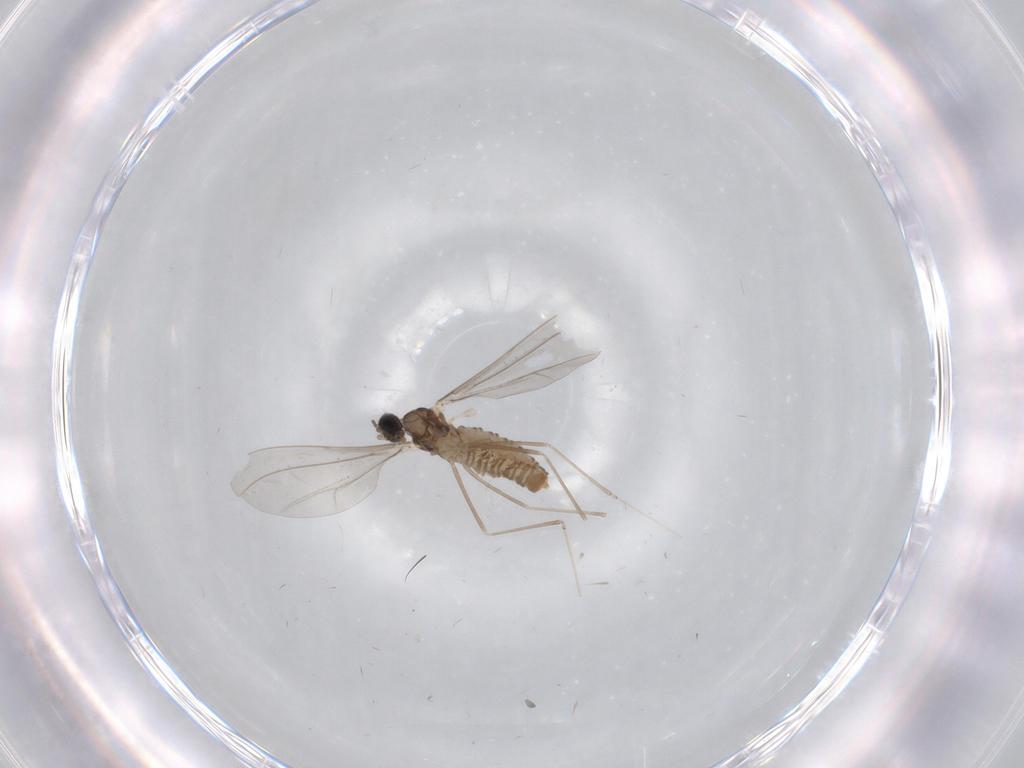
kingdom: Animalia
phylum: Arthropoda
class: Insecta
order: Diptera
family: Cecidomyiidae
